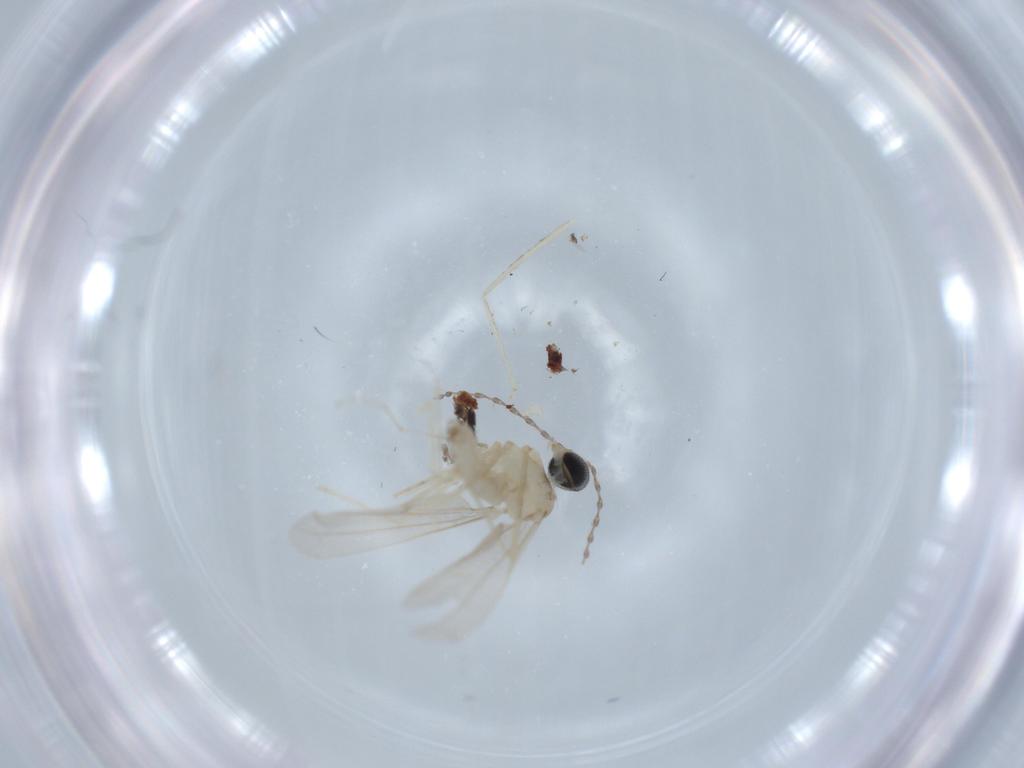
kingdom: Animalia
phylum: Arthropoda
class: Insecta
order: Diptera
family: Cecidomyiidae
